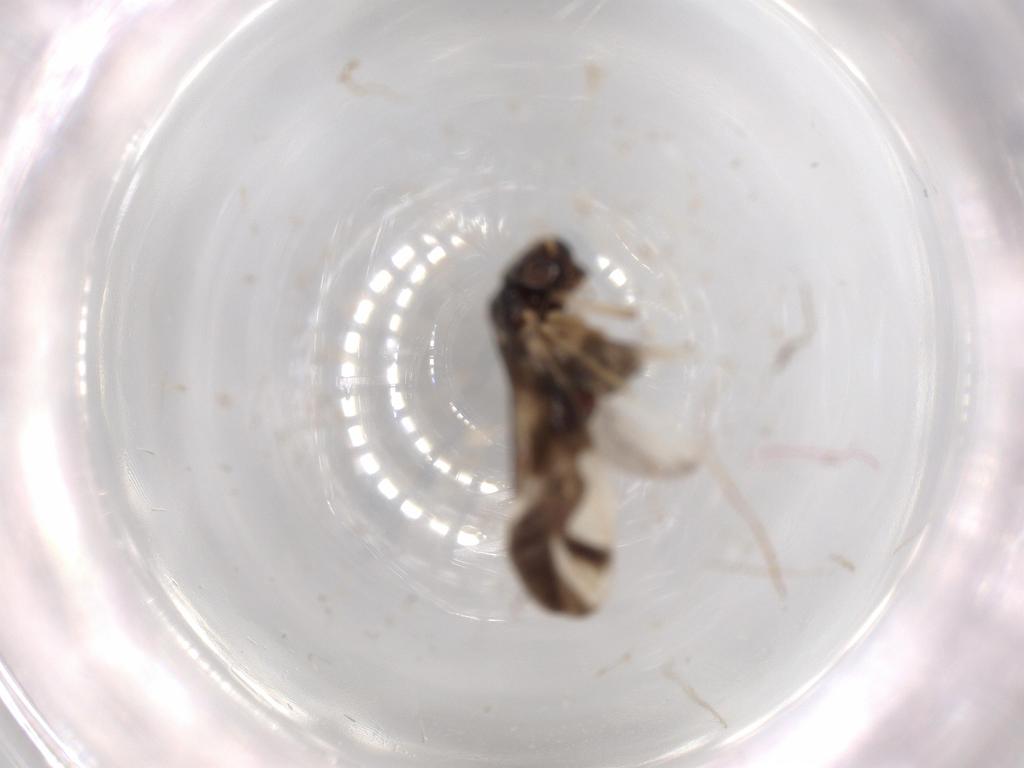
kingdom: Animalia
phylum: Arthropoda
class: Insecta
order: Psocodea
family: Caeciliusidae
